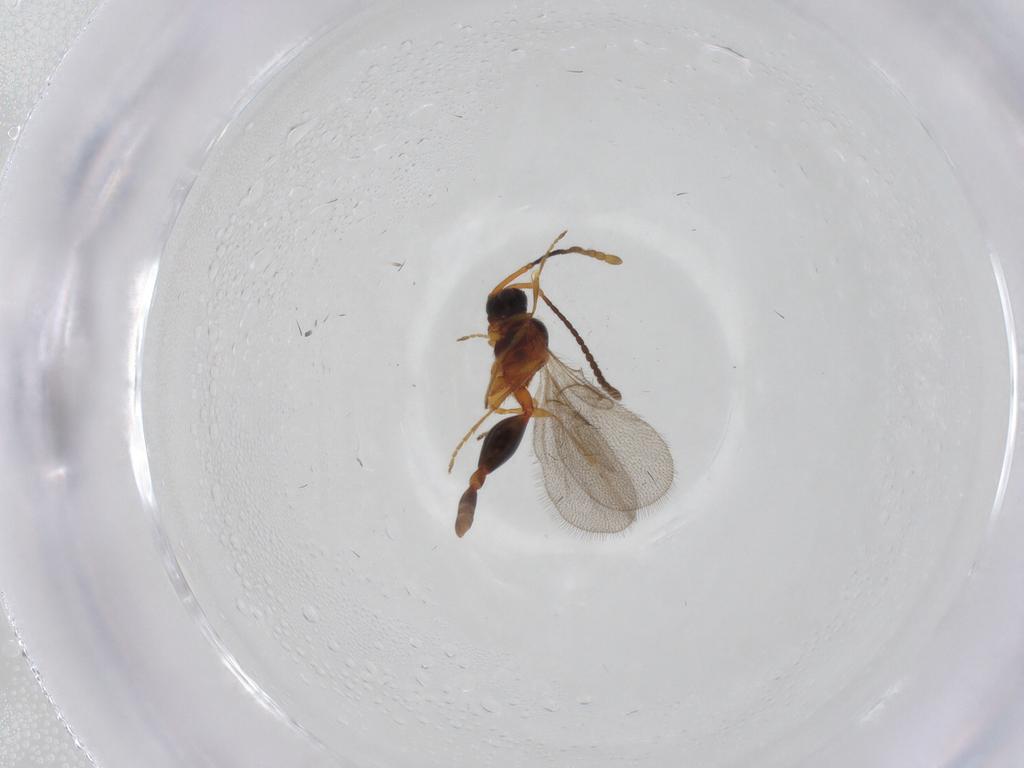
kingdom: Animalia
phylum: Arthropoda
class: Insecta
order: Hymenoptera
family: Diapriidae
